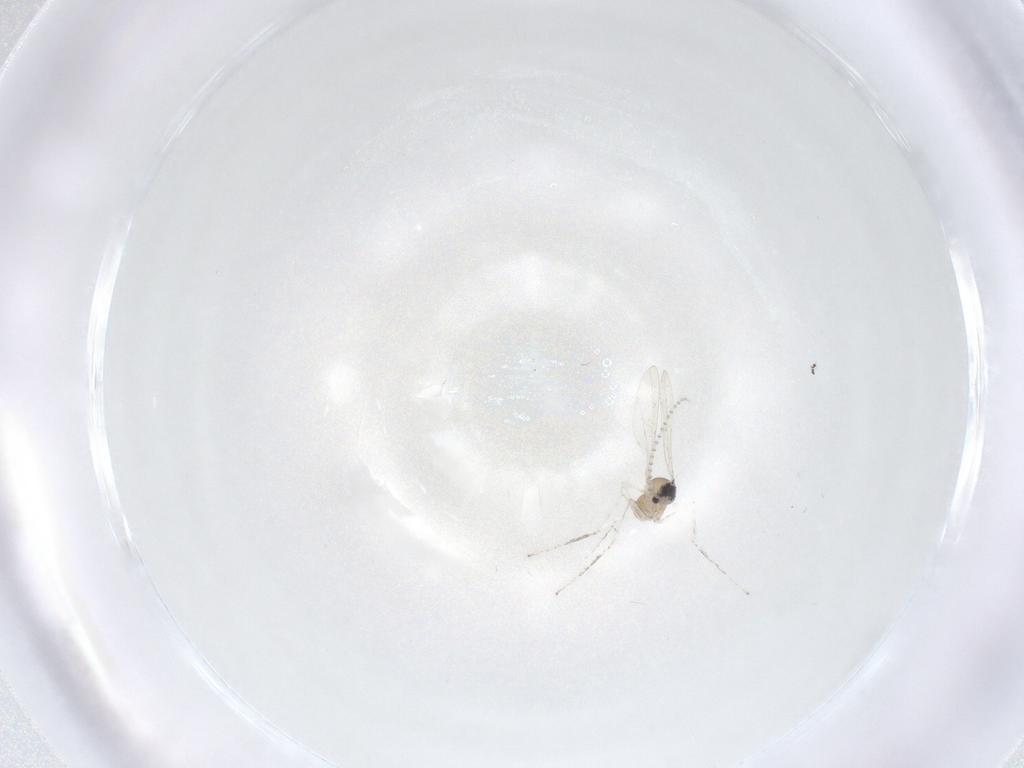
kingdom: Animalia
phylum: Arthropoda
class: Insecta
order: Diptera
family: Cecidomyiidae
